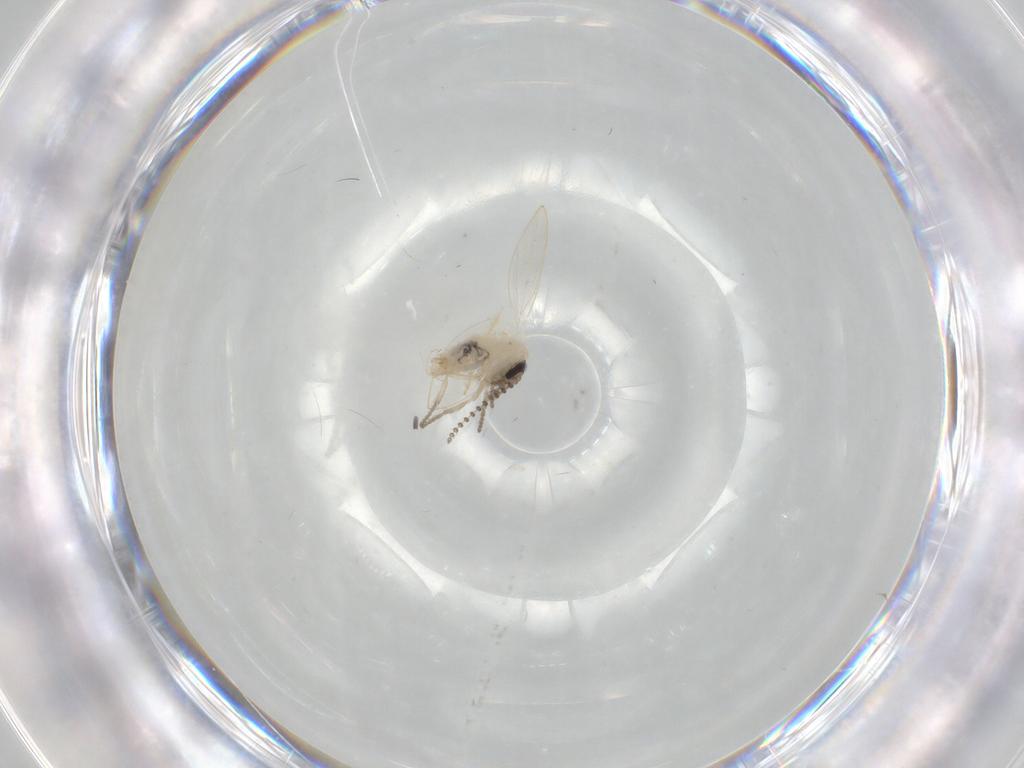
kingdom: Animalia
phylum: Arthropoda
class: Insecta
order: Diptera
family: Psychodidae
